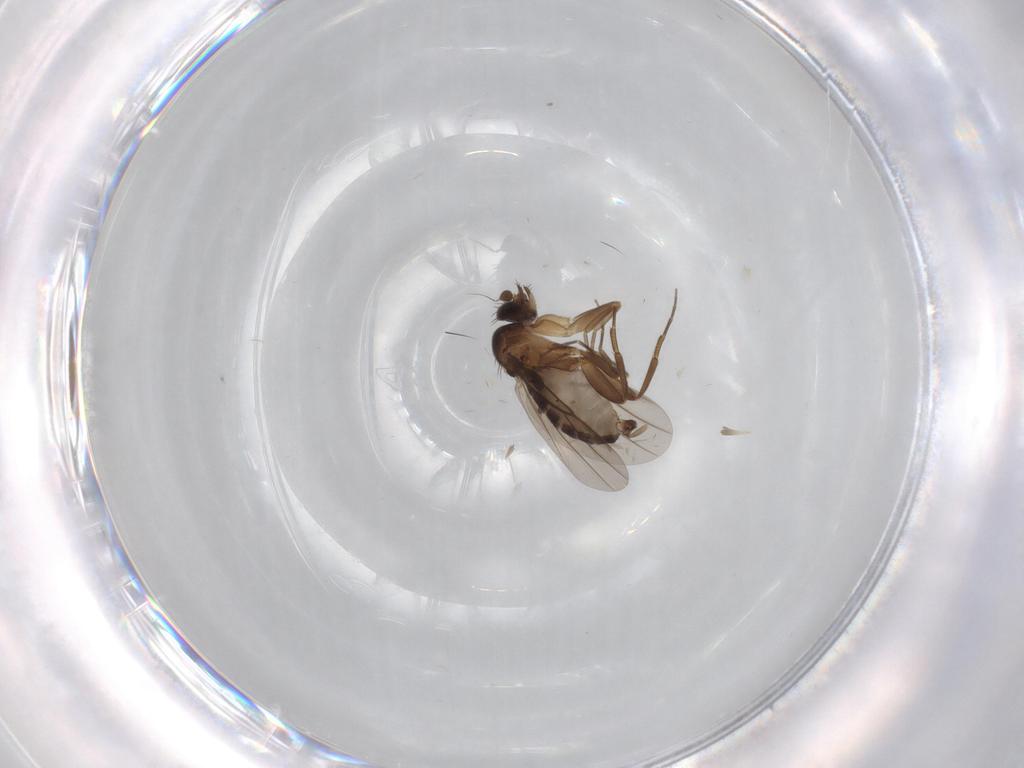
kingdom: Animalia
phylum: Arthropoda
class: Insecta
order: Diptera
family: Phoridae
